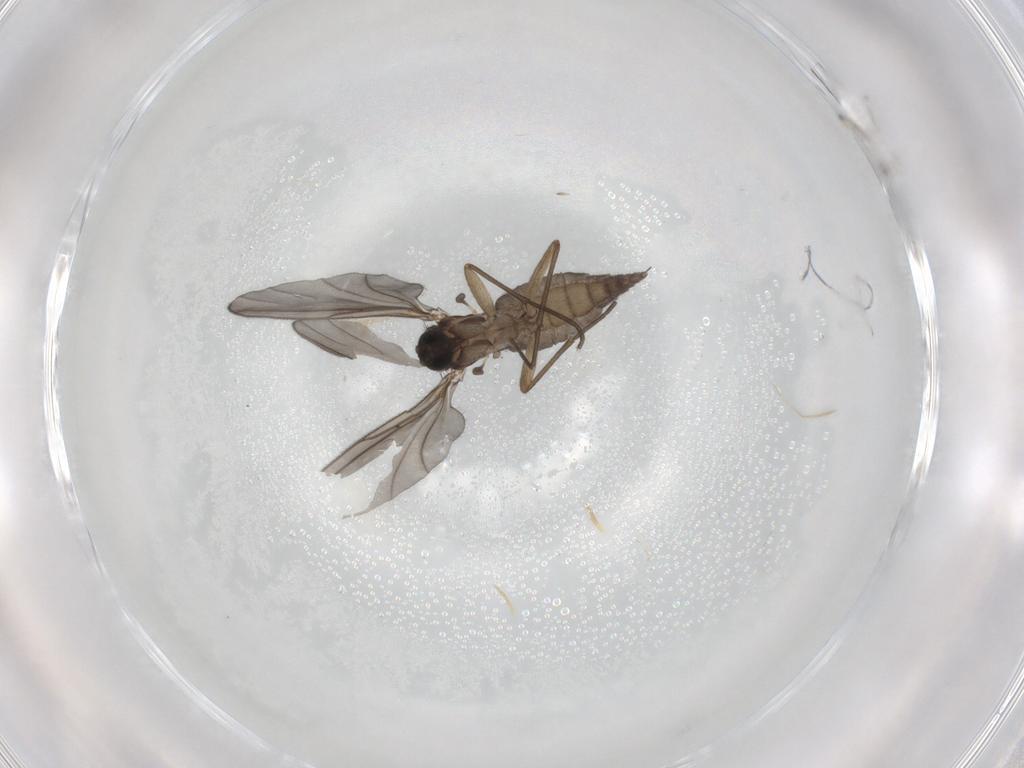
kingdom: Animalia
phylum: Arthropoda
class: Insecta
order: Diptera
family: Sciaridae
